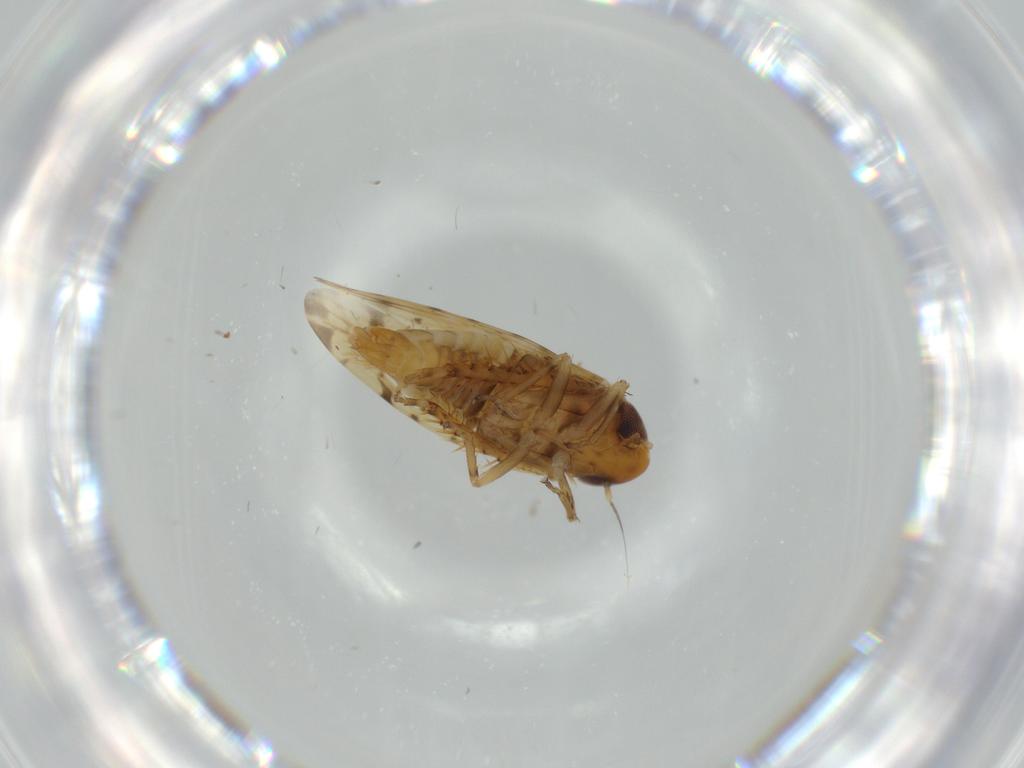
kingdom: Animalia
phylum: Arthropoda
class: Insecta
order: Hemiptera
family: Cicadellidae
